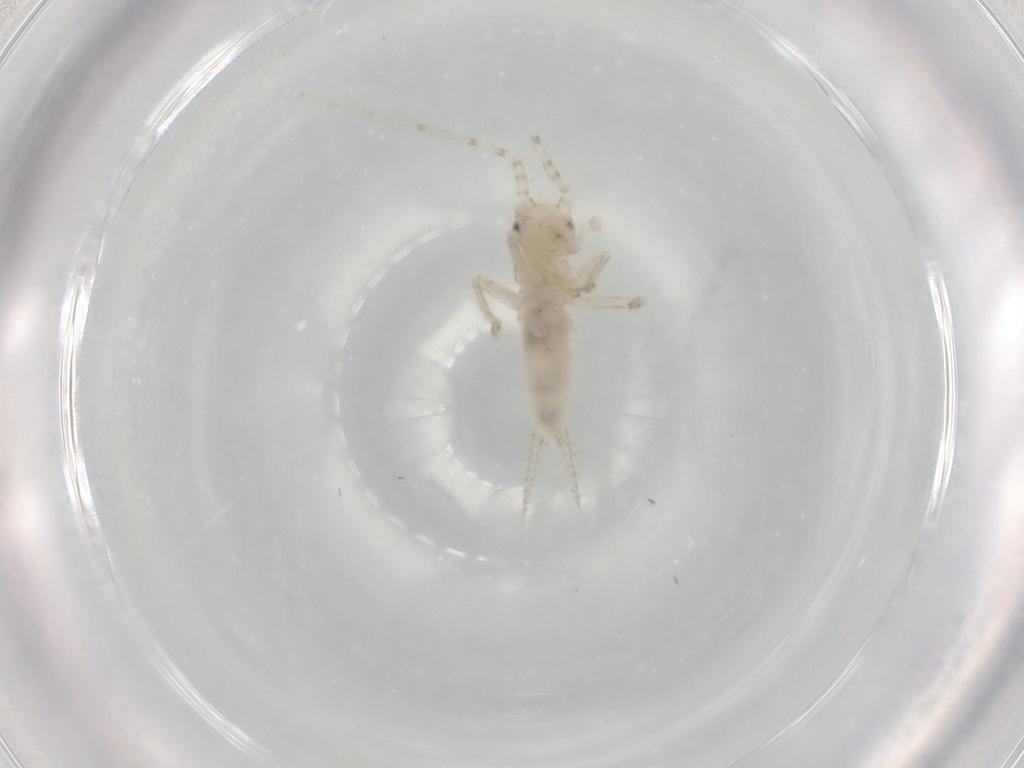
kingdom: Animalia
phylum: Arthropoda
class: Insecta
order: Orthoptera
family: Trigonidiidae
